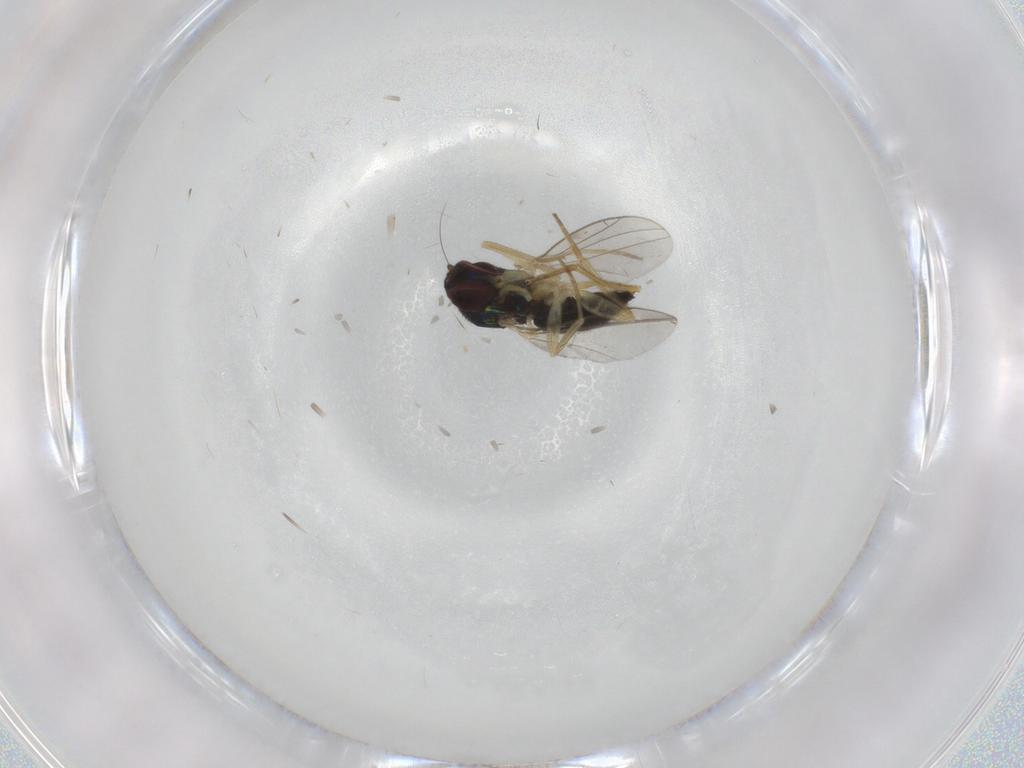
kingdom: Animalia
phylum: Arthropoda
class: Insecta
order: Diptera
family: Dolichopodidae
